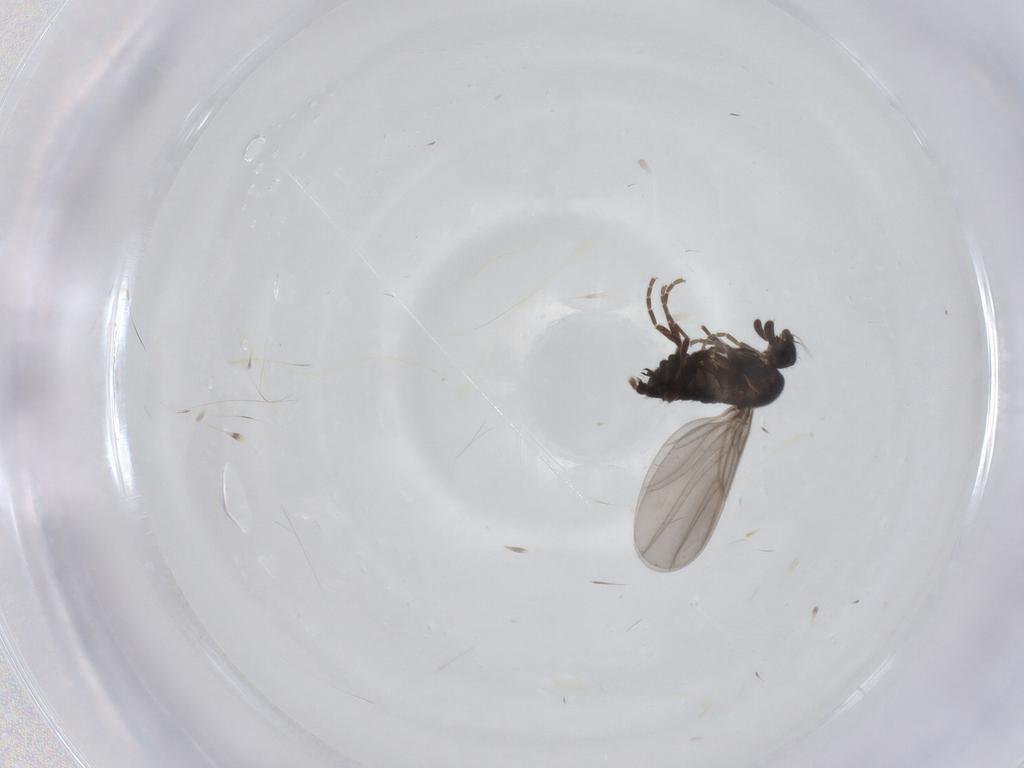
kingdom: Animalia
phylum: Arthropoda
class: Insecta
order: Diptera
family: Phoridae
